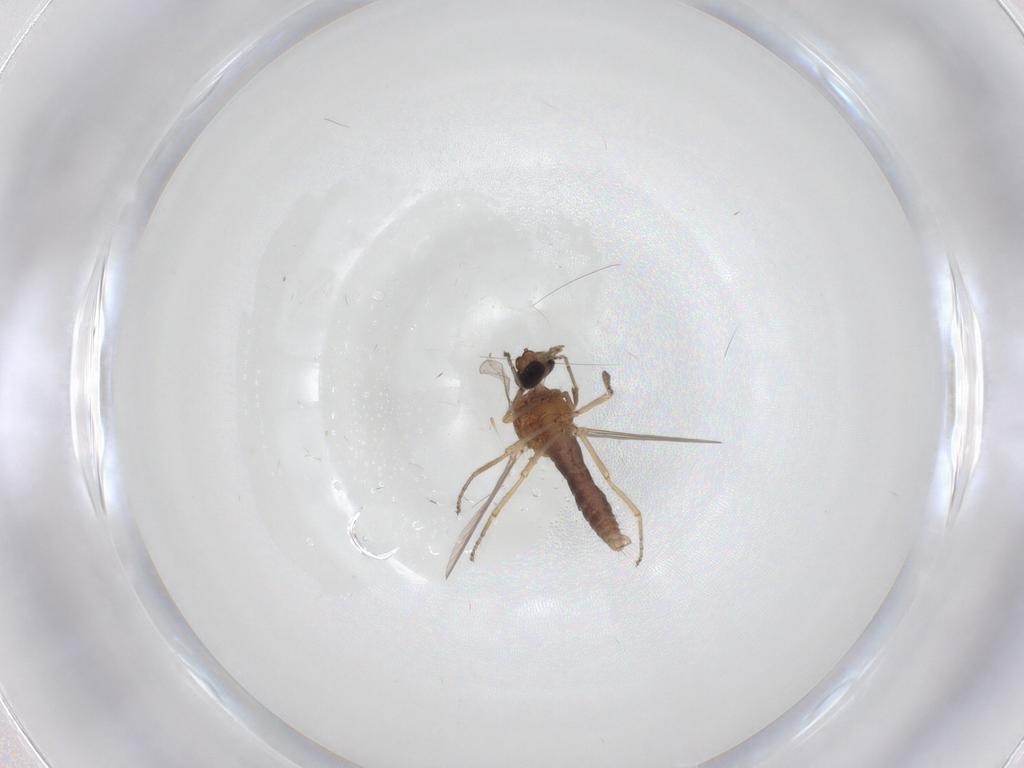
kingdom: Animalia
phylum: Arthropoda
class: Insecta
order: Diptera
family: Ceratopogonidae
